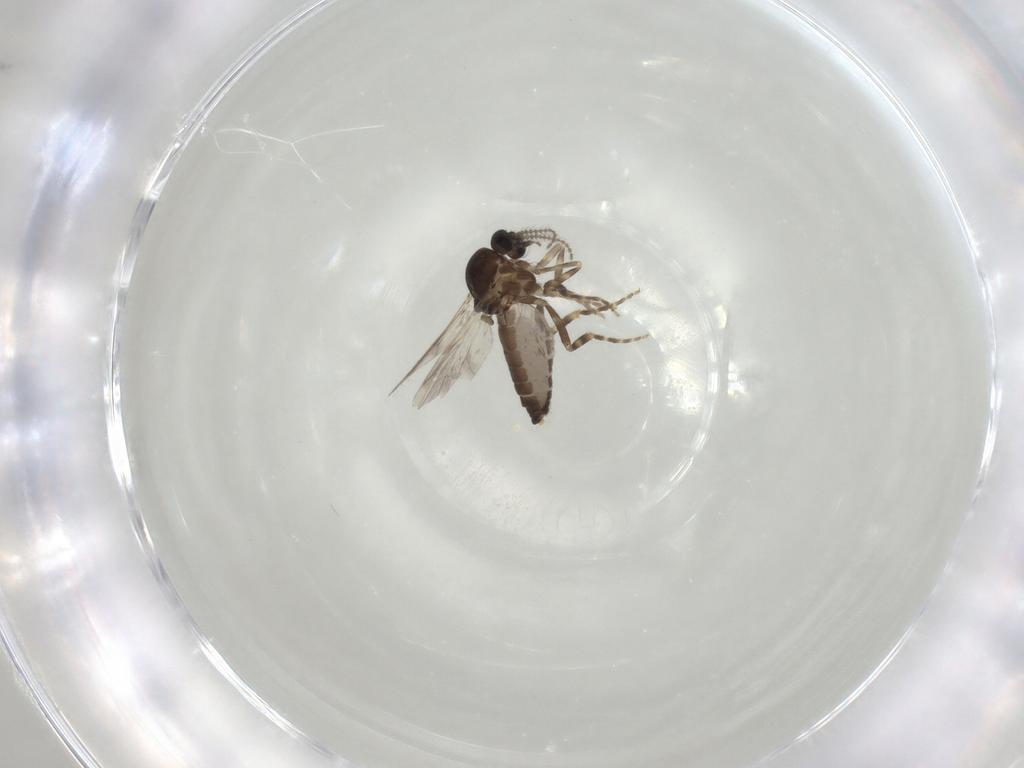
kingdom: Animalia
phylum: Arthropoda
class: Insecta
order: Diptera
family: Ceratopogonidae
